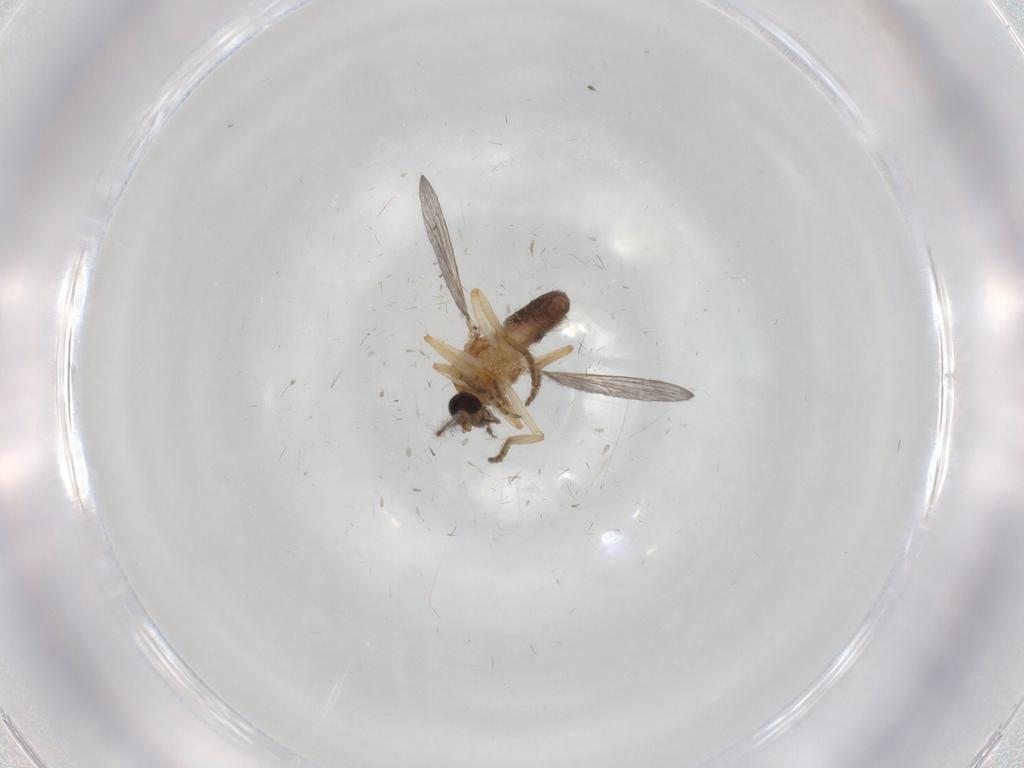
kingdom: Animalia
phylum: Arthropoda
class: Insecta
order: Diptera
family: Ceratopogonidae
